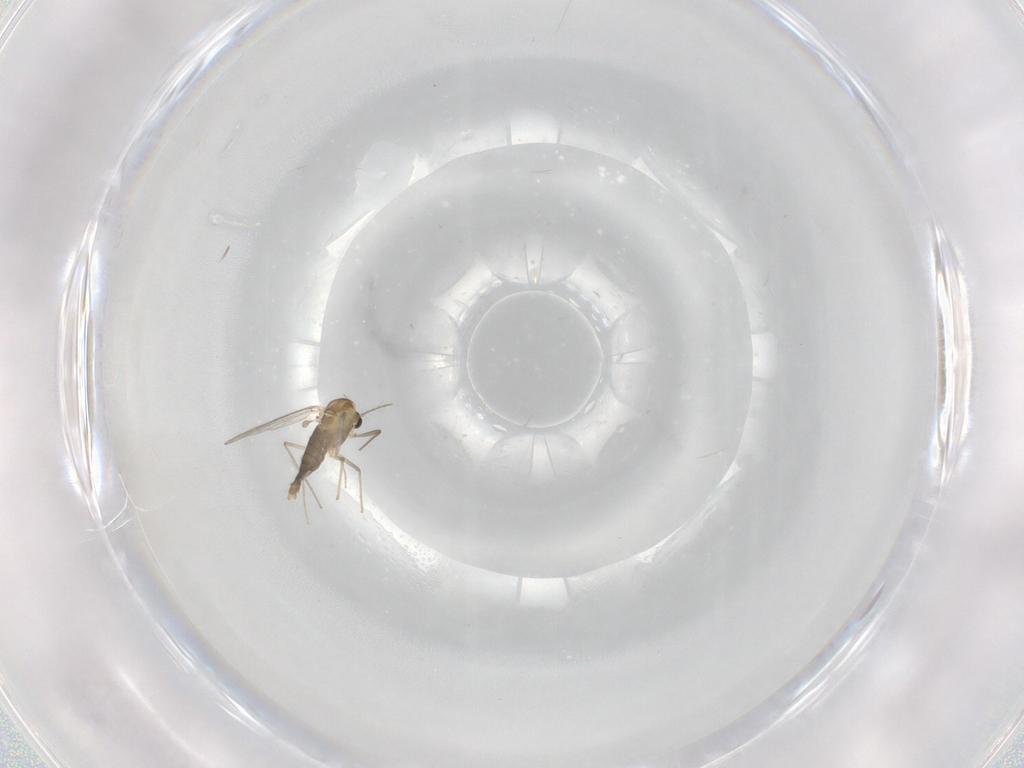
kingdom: Animalia
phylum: Arthropoda
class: Insecta
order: Diptera
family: Chironomidae
